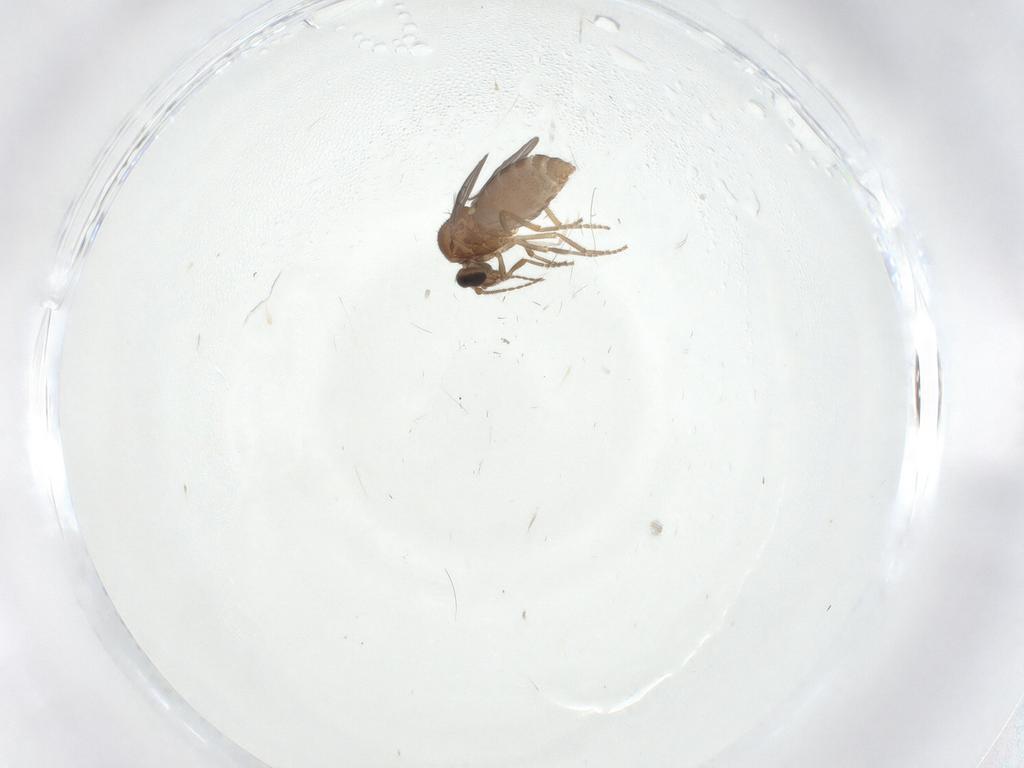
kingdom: Animalia
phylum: Arthropoda
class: Insecta
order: Diptera
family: Ceratopogonidae
